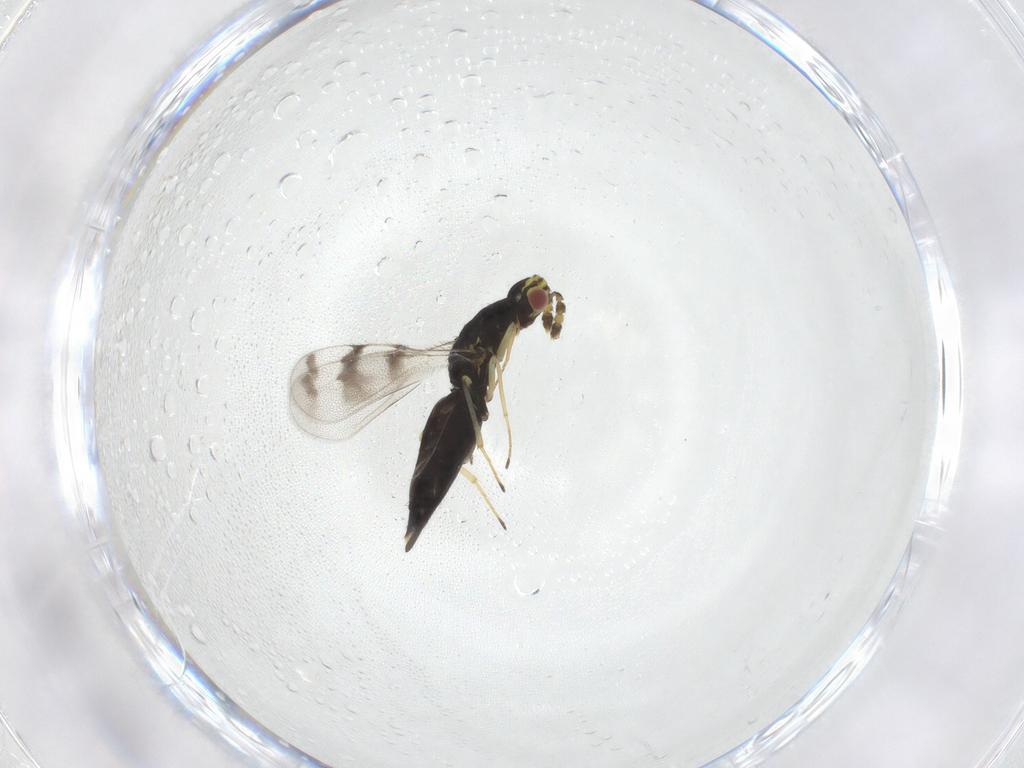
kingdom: Animalia
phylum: Arthropoda
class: Insecta
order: Hymenoptera
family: Eulophidae
